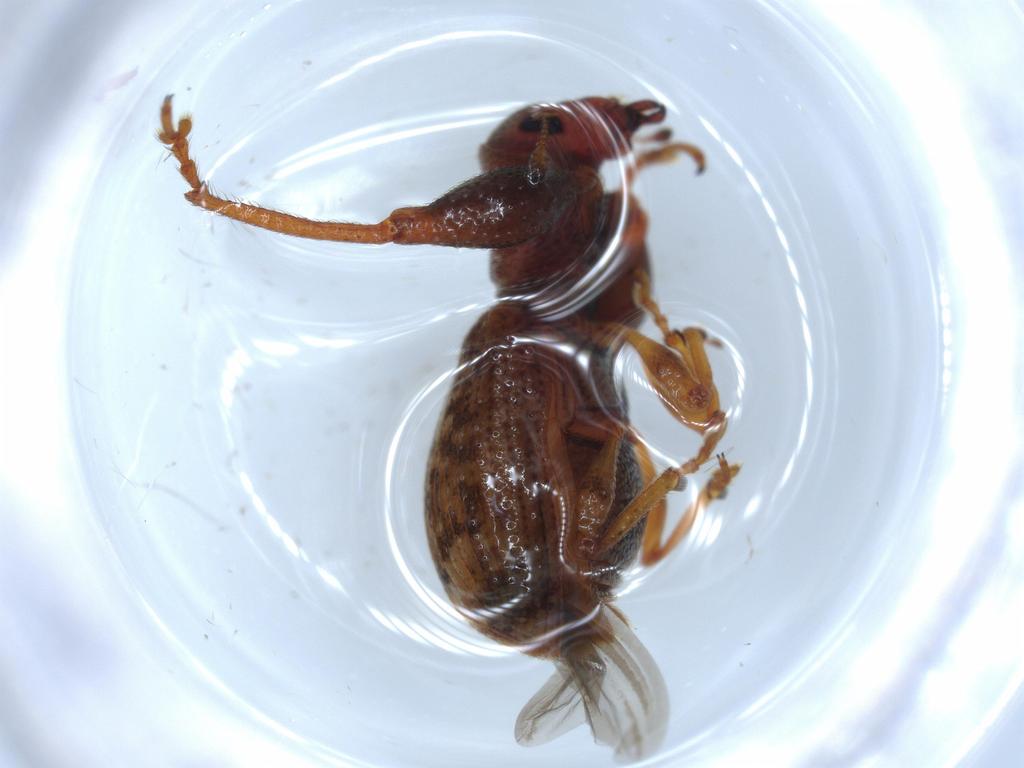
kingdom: Animalia
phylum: Arthropoda
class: Insecta
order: Coleoptera
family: Curculionidae
